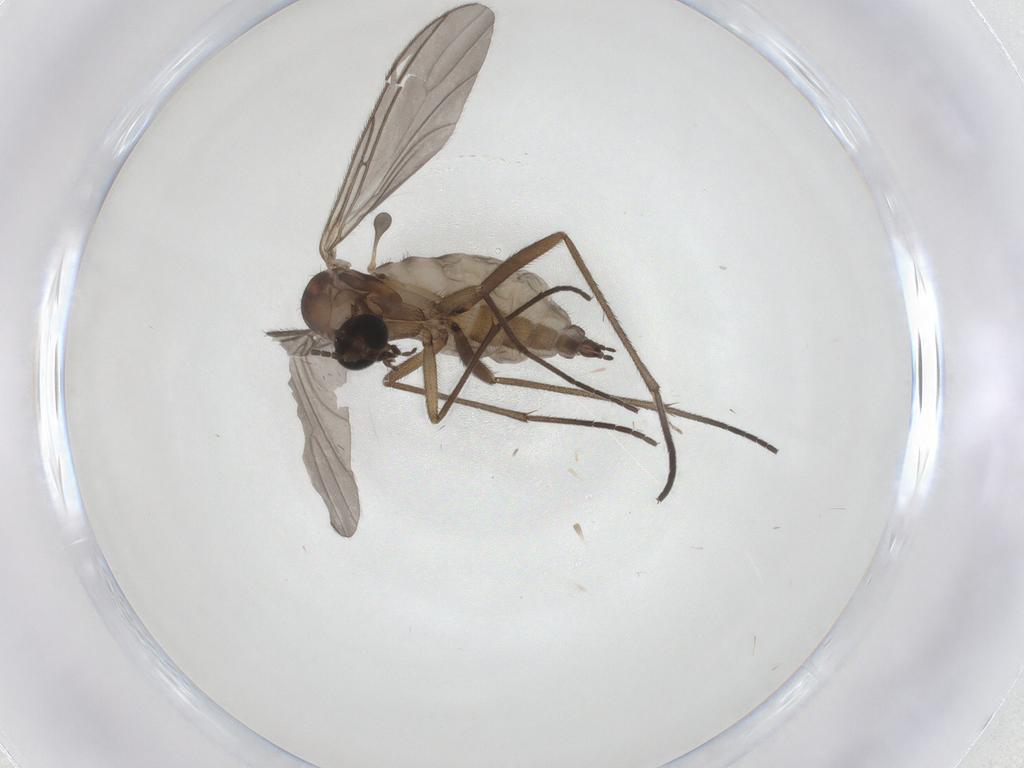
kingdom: Animalia
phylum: Arthropoda
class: Insecta
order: Diptera
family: Sciaridae
